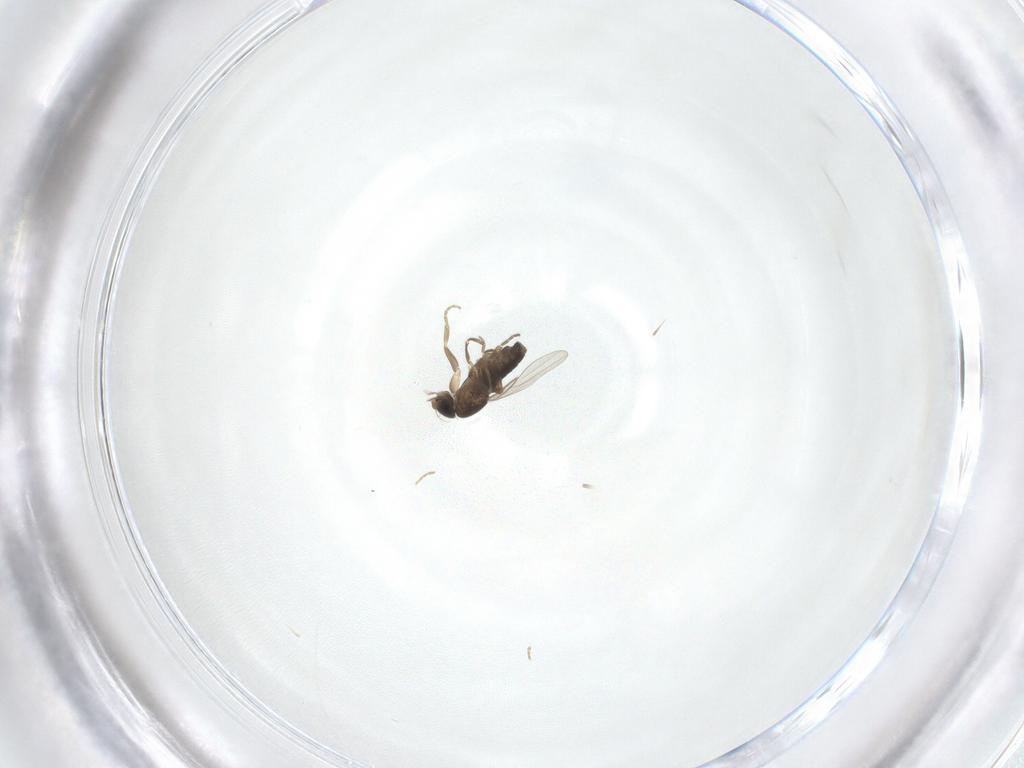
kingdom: Animalia
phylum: Arthropoda
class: Insecta
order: Diptera
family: Phoridae
